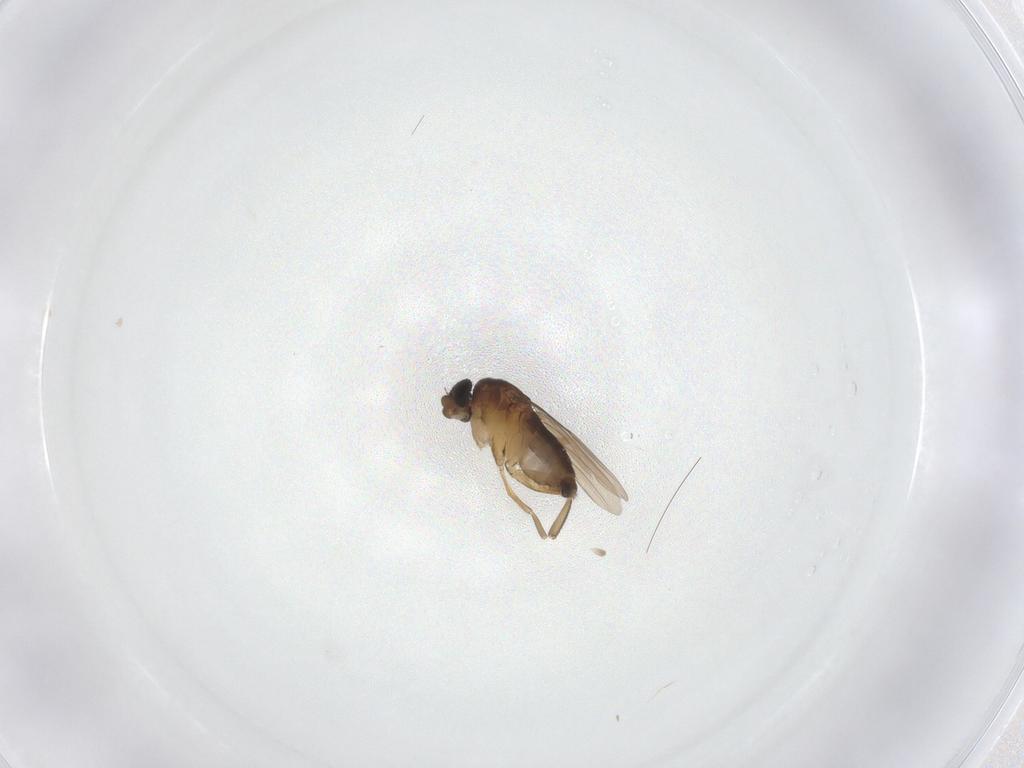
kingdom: Animalia
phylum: Arthropoda
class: Insecta
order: Diptera
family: Phoridae
